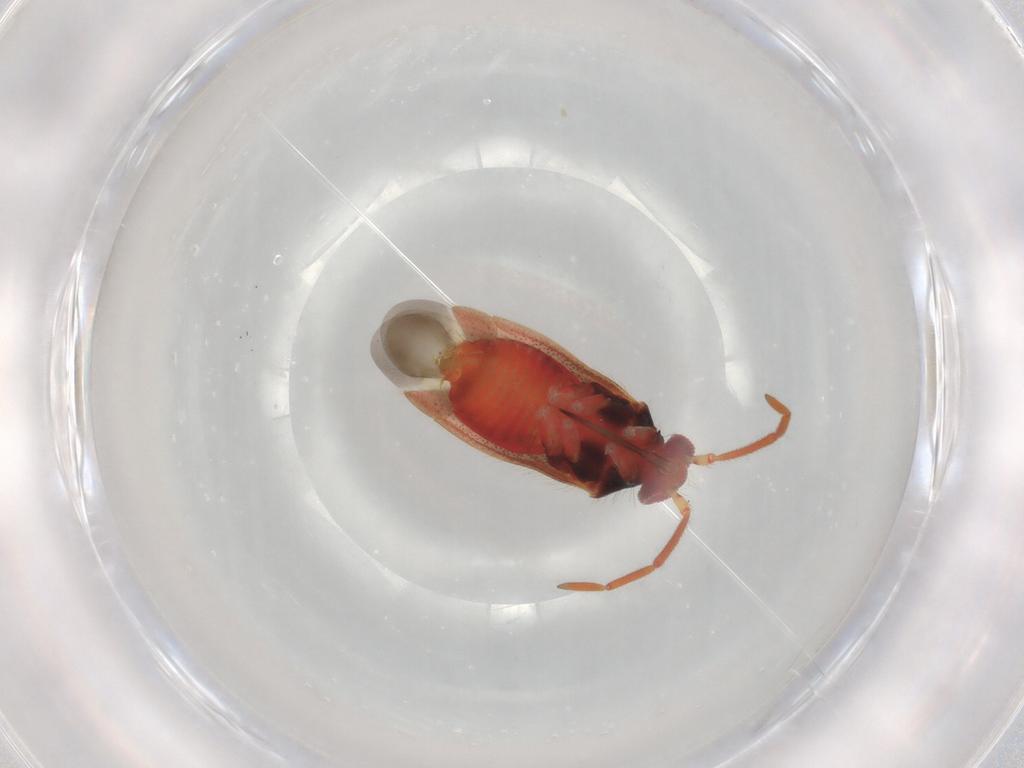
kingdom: Animalia
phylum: Arthropoda
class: Insecta
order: Hemiptera
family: Miridae
